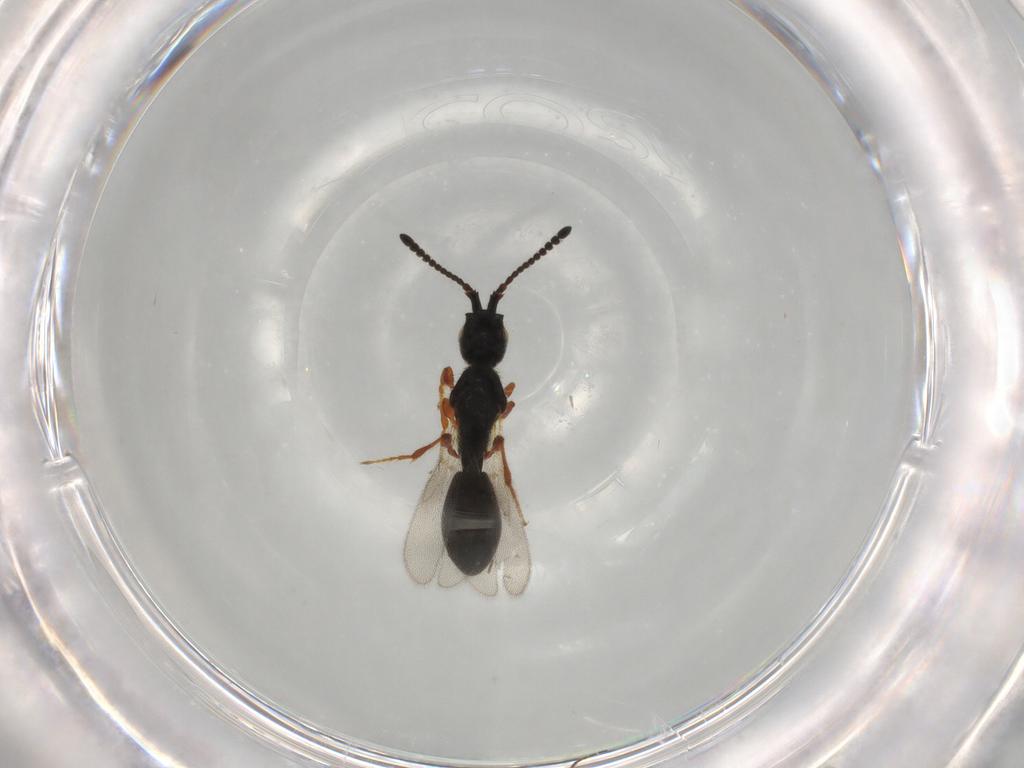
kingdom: Animalia
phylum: Arthropoda
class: Insecta
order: Hymenoptera
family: Diapriidae
